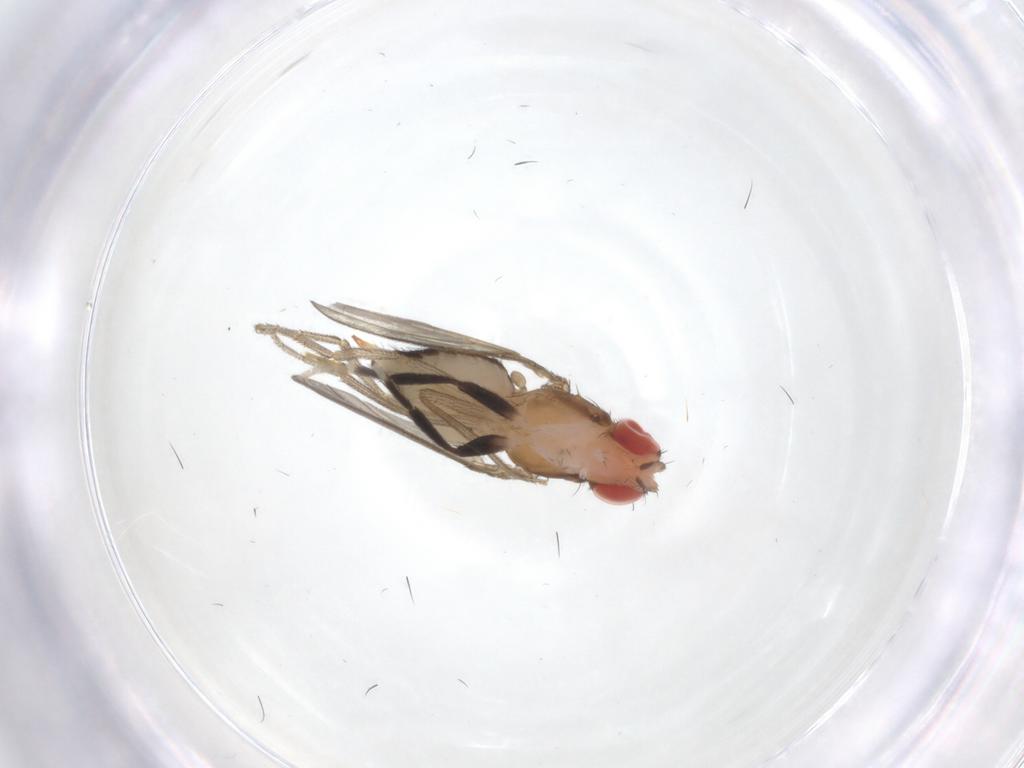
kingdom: Animalia
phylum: Arthropoda
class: Insecta
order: Diptera
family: Drosophilidae
